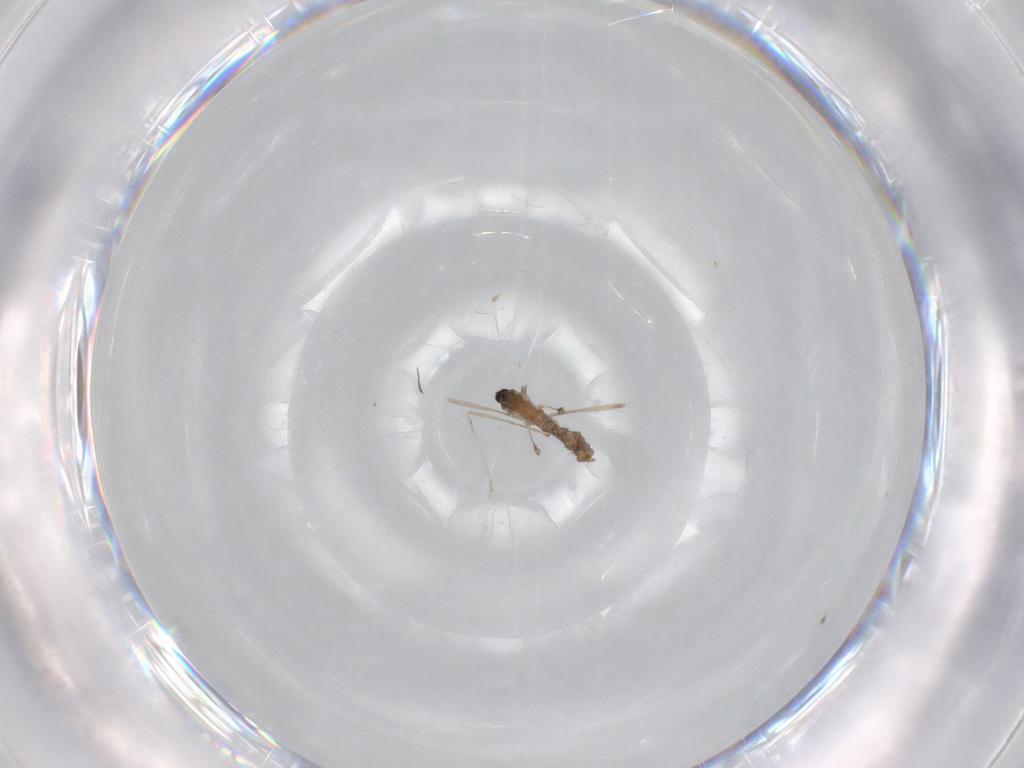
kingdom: Animalia
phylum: Arthropoda
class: Insecta
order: Diptera
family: Cecidomyiidae
